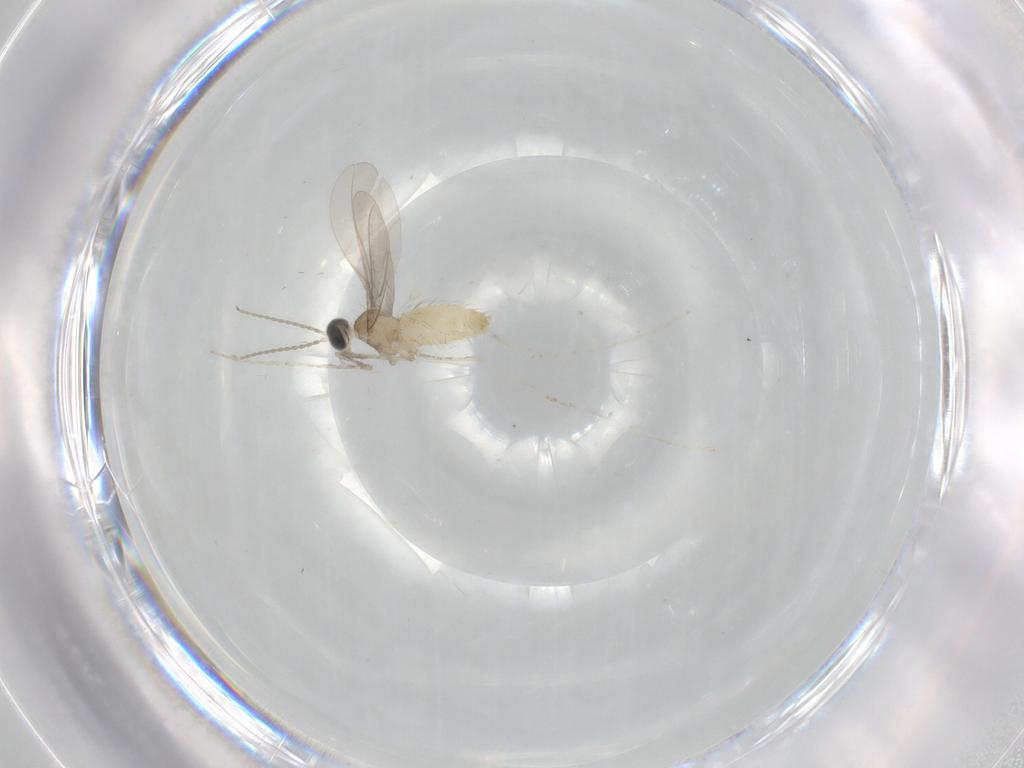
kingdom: Animalia
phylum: Arthropoda
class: Insecta
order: Diptera
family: Cecidomyiidae
